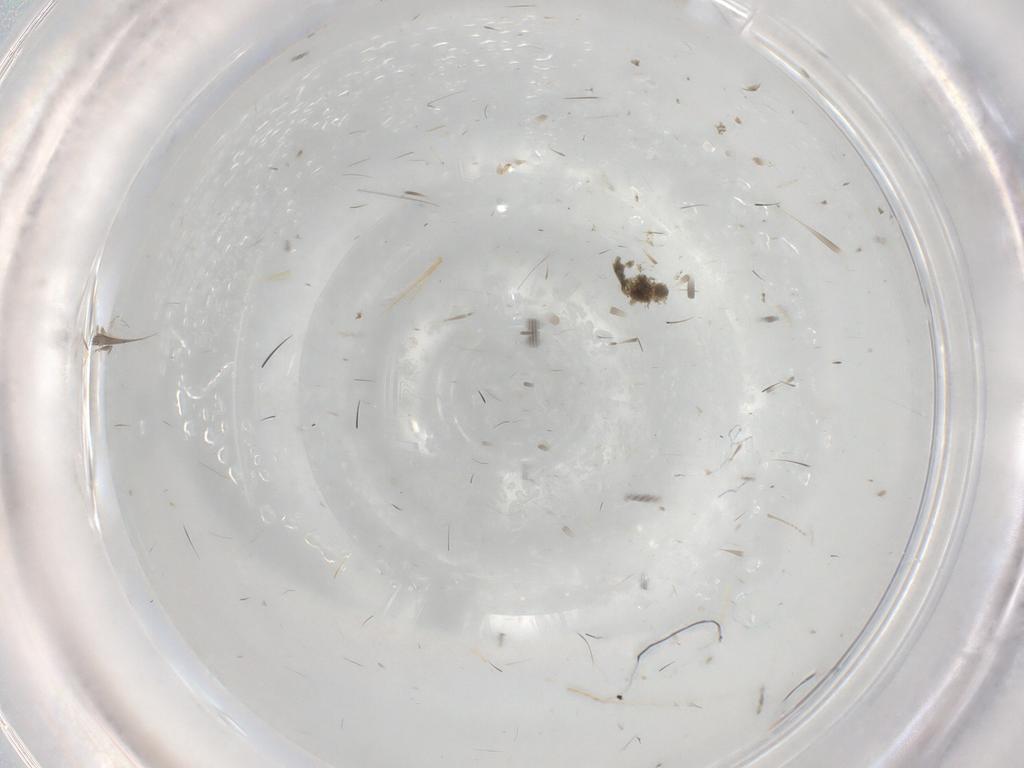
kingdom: Animalia
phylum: Arthropoda
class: Insecta
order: Diptera
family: Ceratopogonidae
